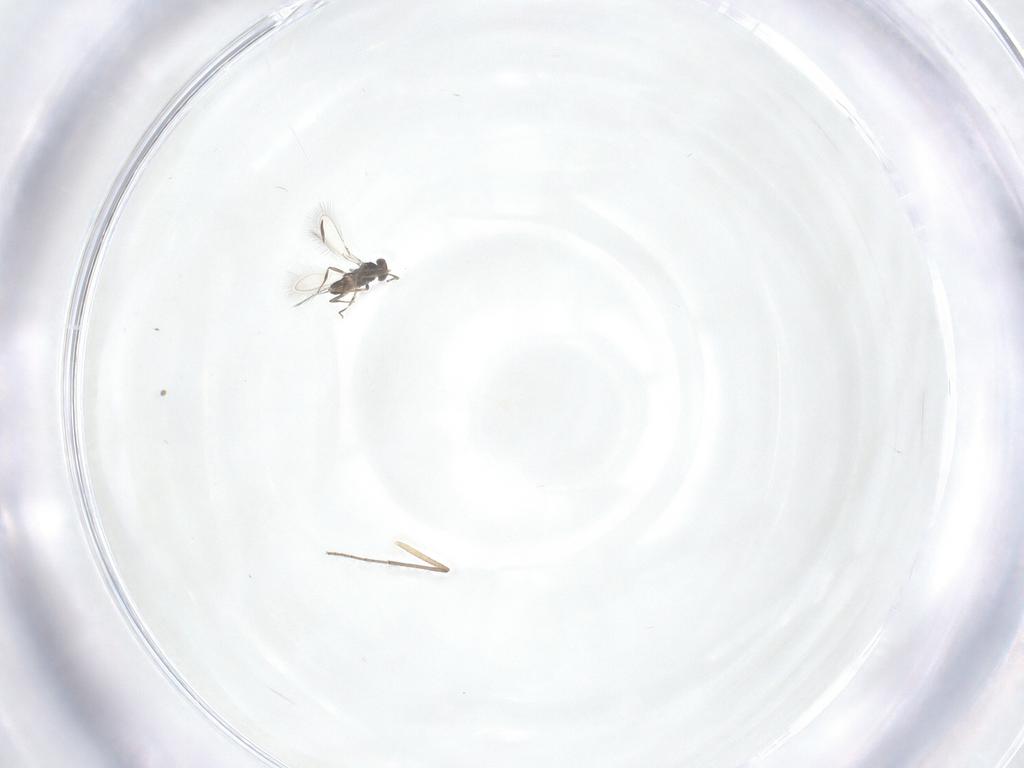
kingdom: Animalia
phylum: Arthropoda
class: Insecta
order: Hymenoptera
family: Mymaridae
